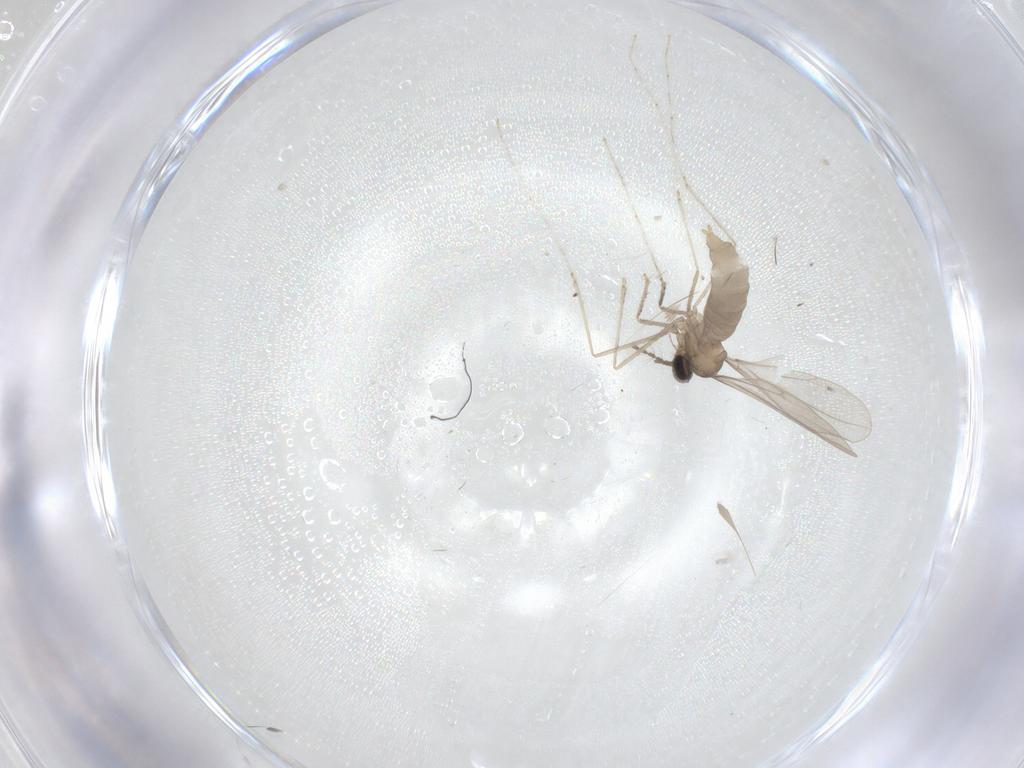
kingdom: Animalia
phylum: Arthropoda
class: Insecta
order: Diptera
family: Cecidomyiidae
